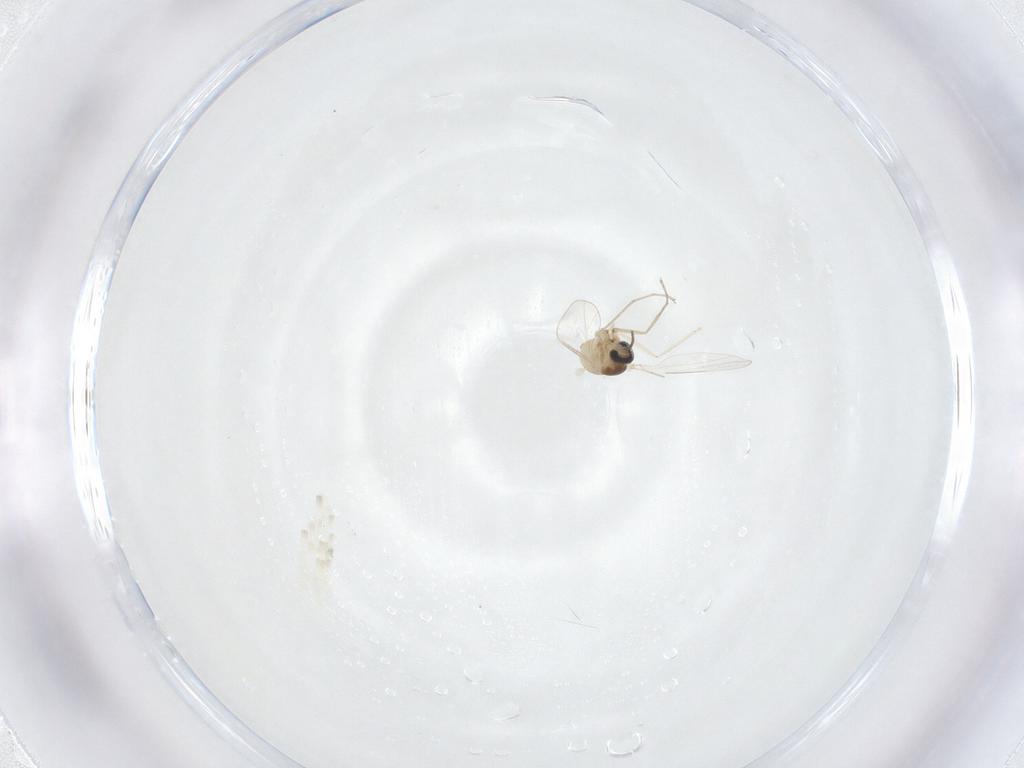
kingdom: Animalia
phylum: Arthropoda
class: Insecta
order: Diptera
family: Cecidomyiidae
